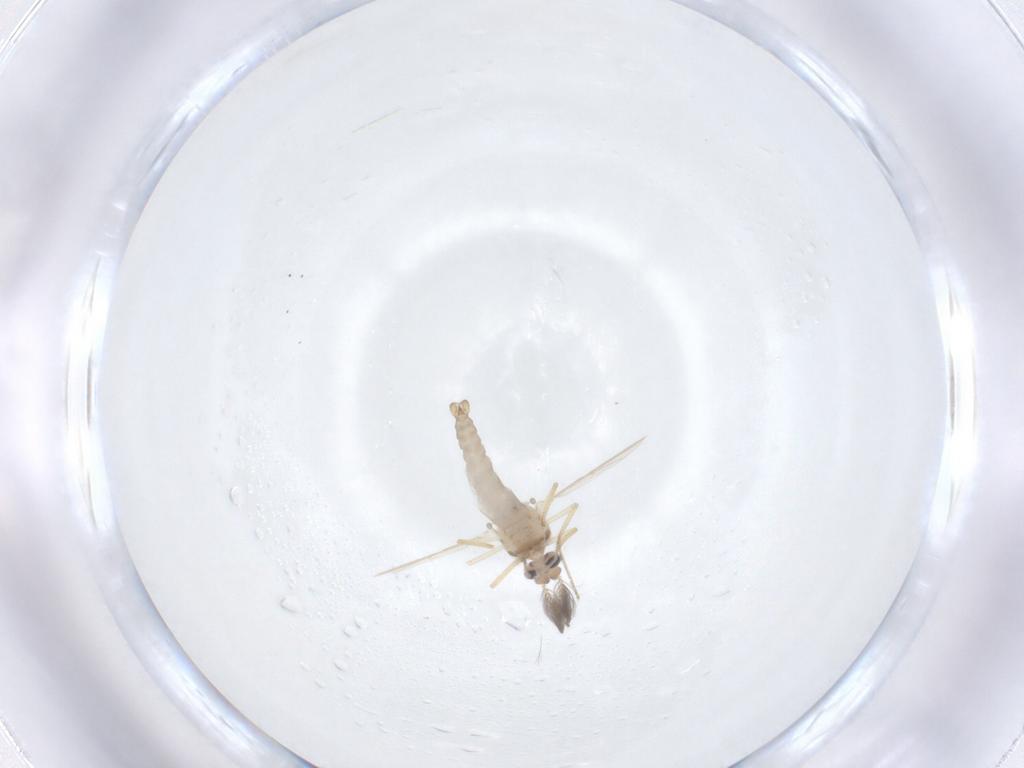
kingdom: Animalia
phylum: Arthropoda
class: Insecta
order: Diptera
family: Ceratopogonidae
